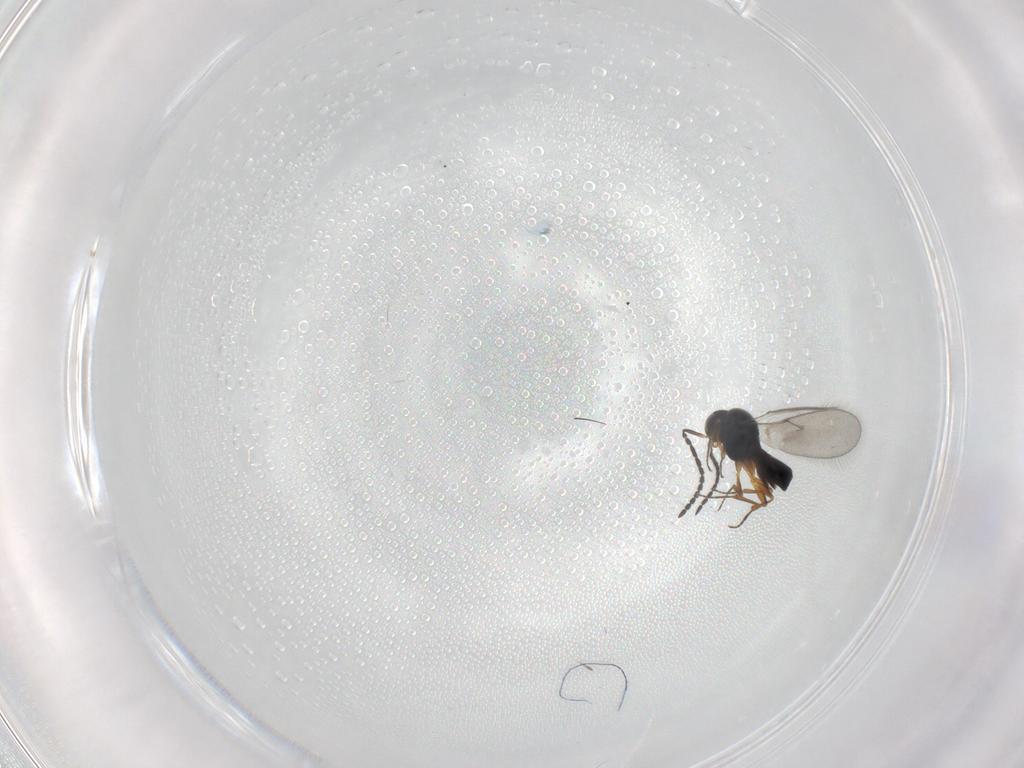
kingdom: Animalia
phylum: Arthropoda
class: Insecta
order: Hymenoptera
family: Scelionidae
